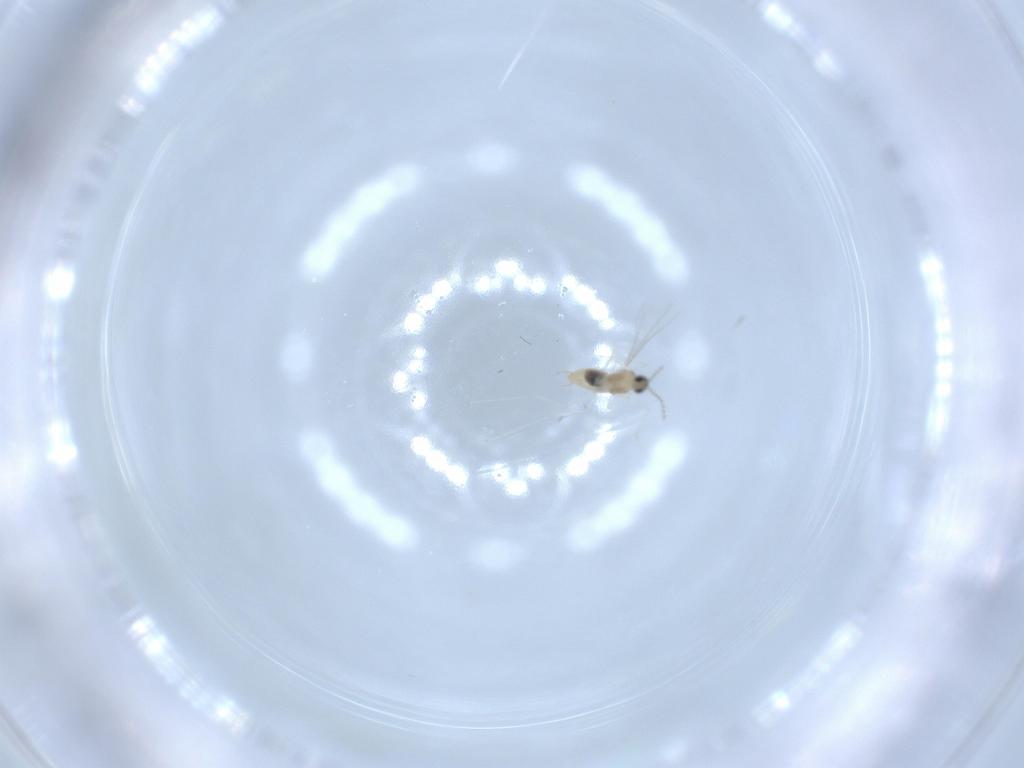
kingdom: Animalia
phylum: Arthropoda
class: Insecta
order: Diptera
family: Cecidomyiidae
